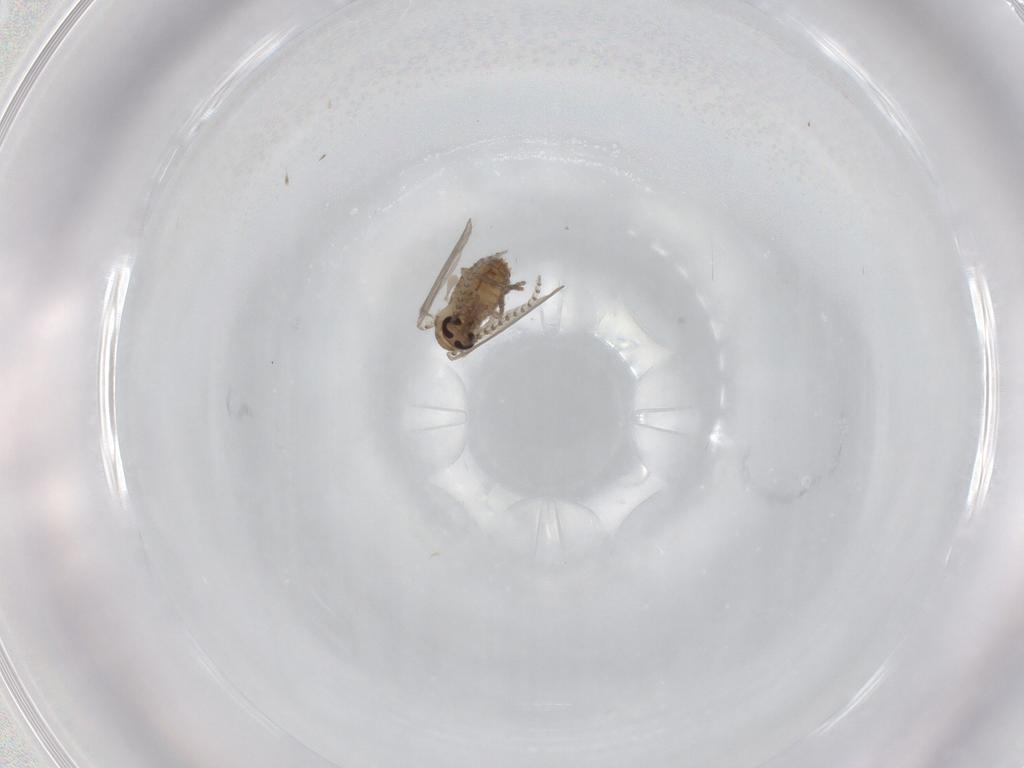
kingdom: Animalia
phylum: Arthropoda
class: Insecta
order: Diptera
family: Psychodidae
